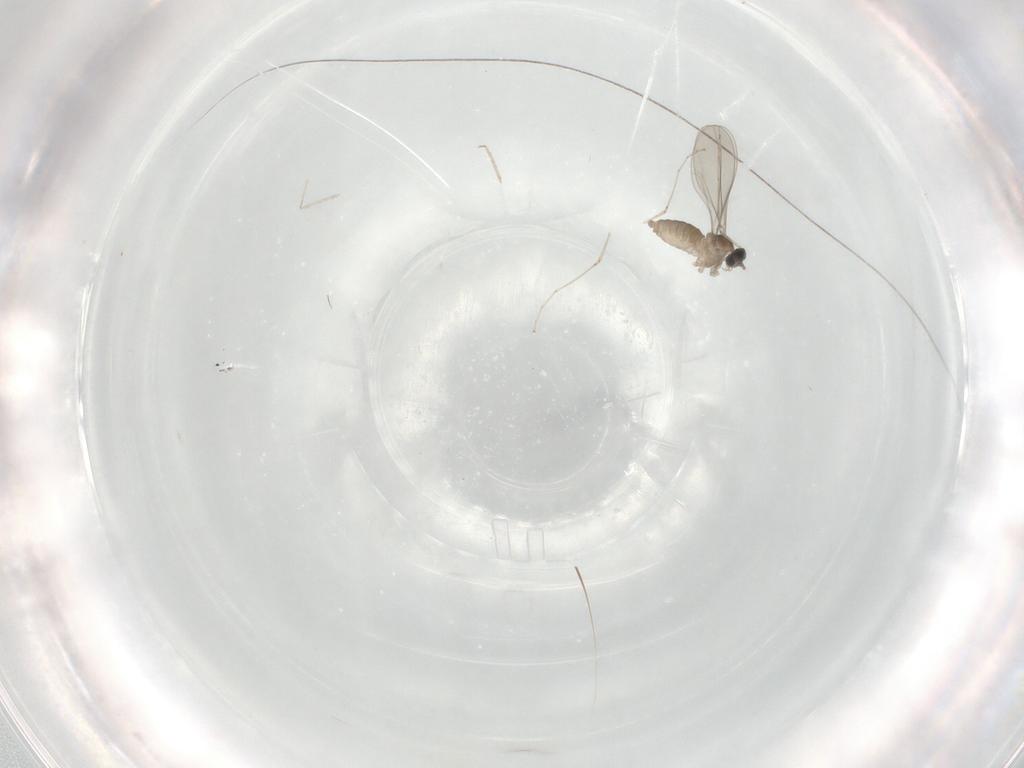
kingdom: Animalia
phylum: Arthropoda
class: Insecta
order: Diptera
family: Cecidomyiidae
